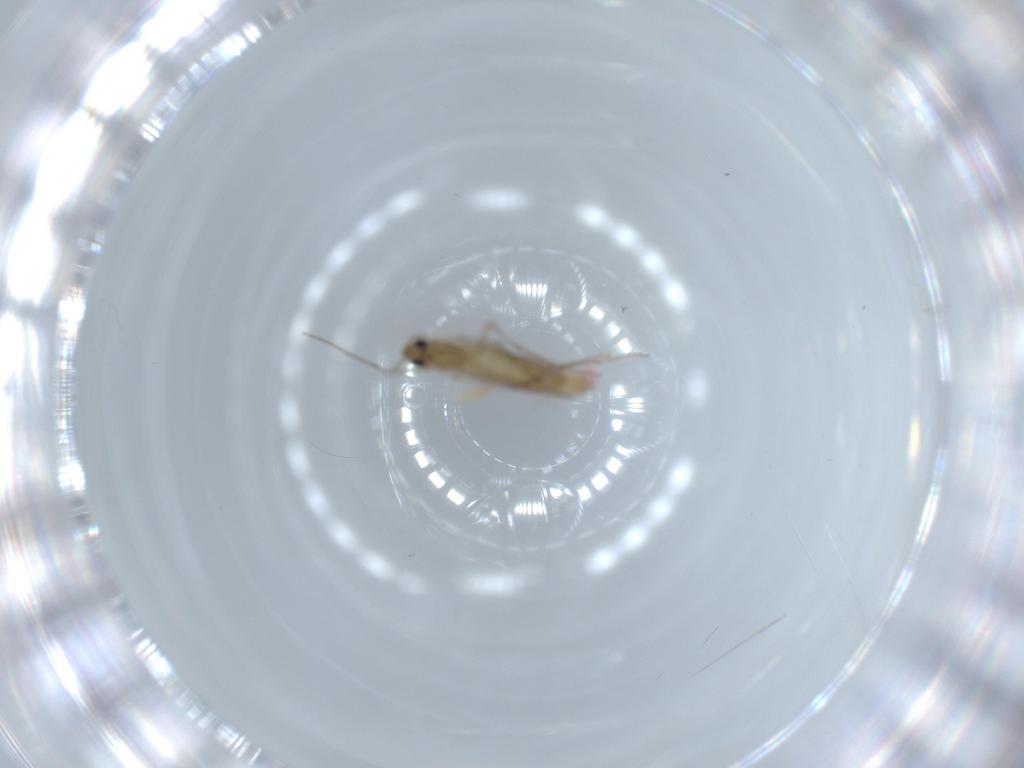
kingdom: Animalia
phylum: Arthropoda
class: Insecta
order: Diptera
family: Chironomidae
